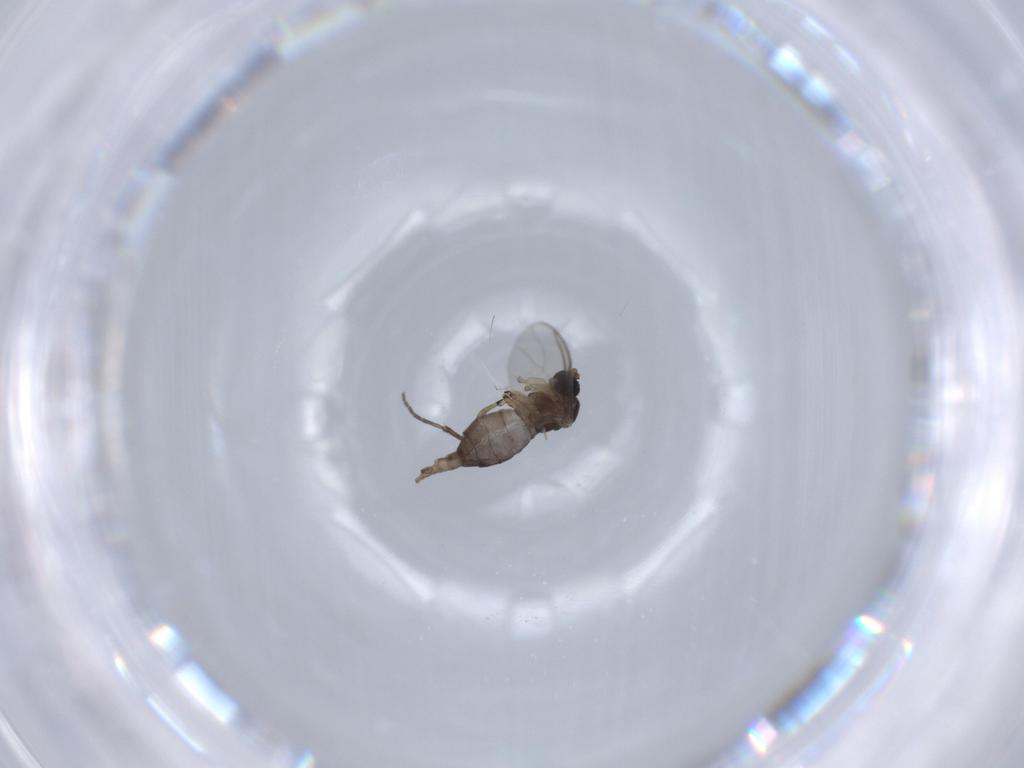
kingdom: Animalia
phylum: Arthropoda
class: Insecta
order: Diptera
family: Sciaridae
